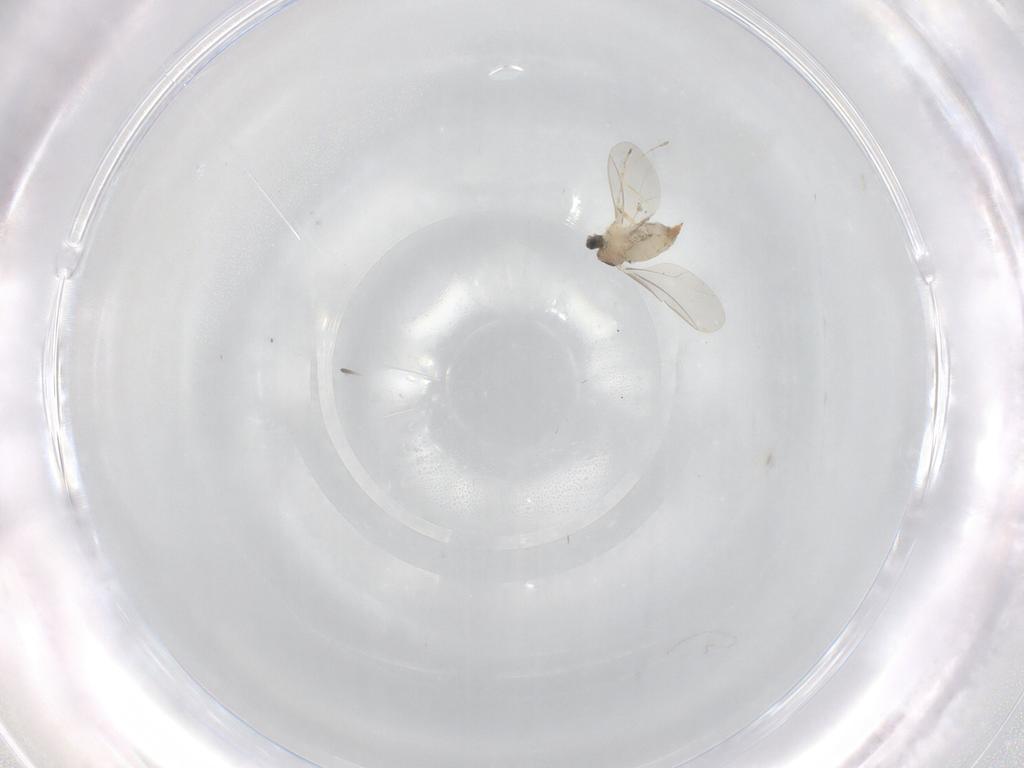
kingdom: Animalia
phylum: Arthropoda
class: Insecta
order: Diptera
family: Cecidomyiidae
